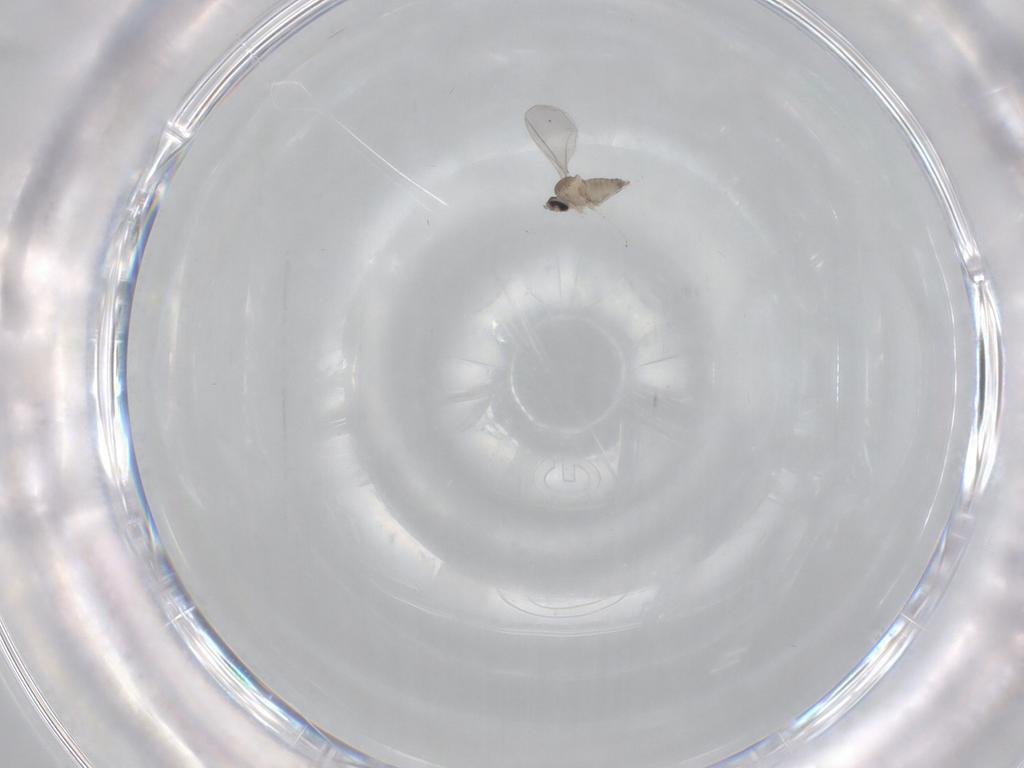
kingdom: Animalia
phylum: Arthropoda
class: Insecta
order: Diptera
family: Cecidomyiidae
